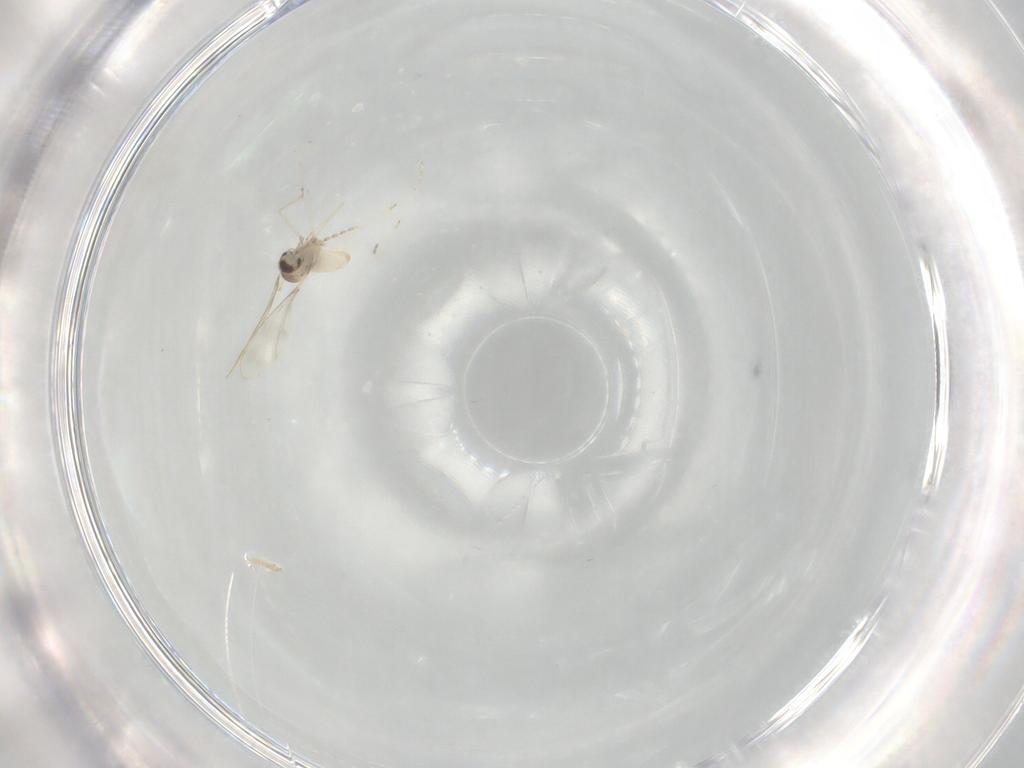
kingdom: Animalia
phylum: Arthropoda
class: Insecta
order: Diptera
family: Cecidomyiidae
